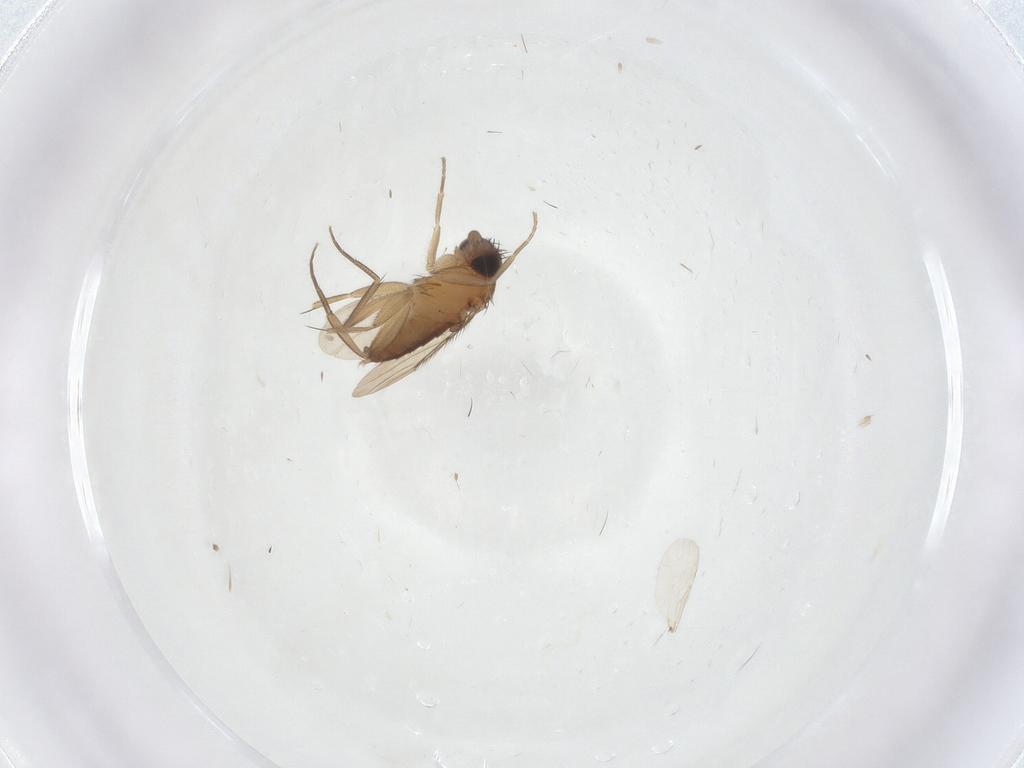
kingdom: Animalia
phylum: Arthropoda
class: Insecta
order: Diptera
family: Phoridae
